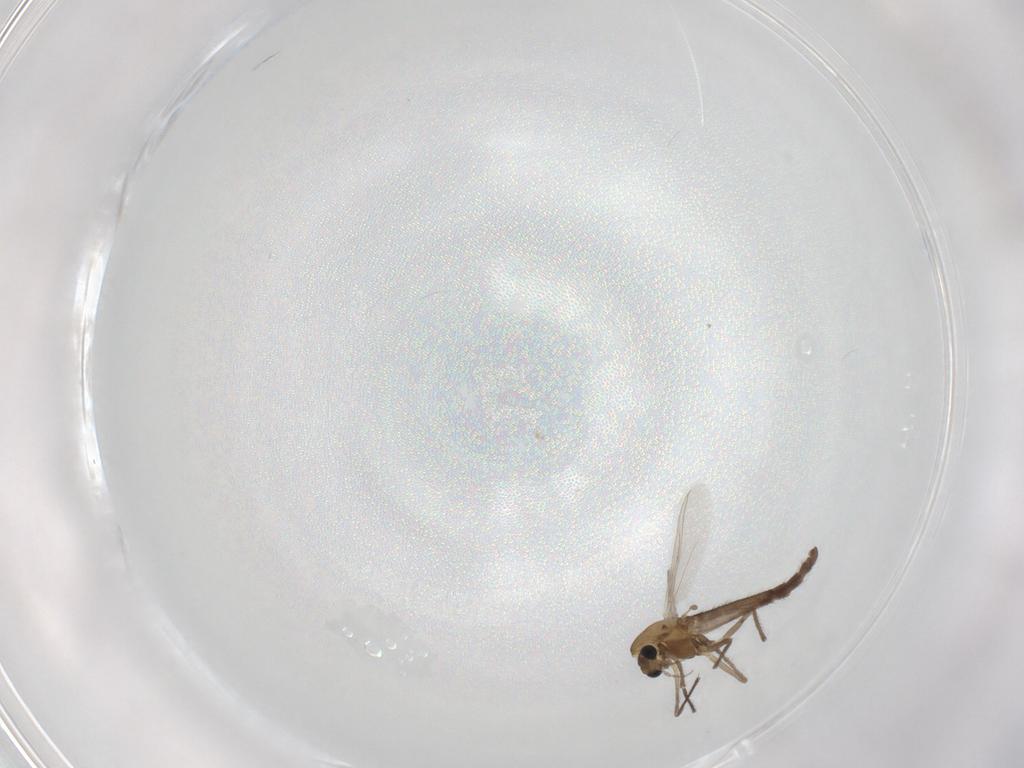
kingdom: Animalia
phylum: Arthropoda
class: Insecta
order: Diptera
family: Chironomidae
